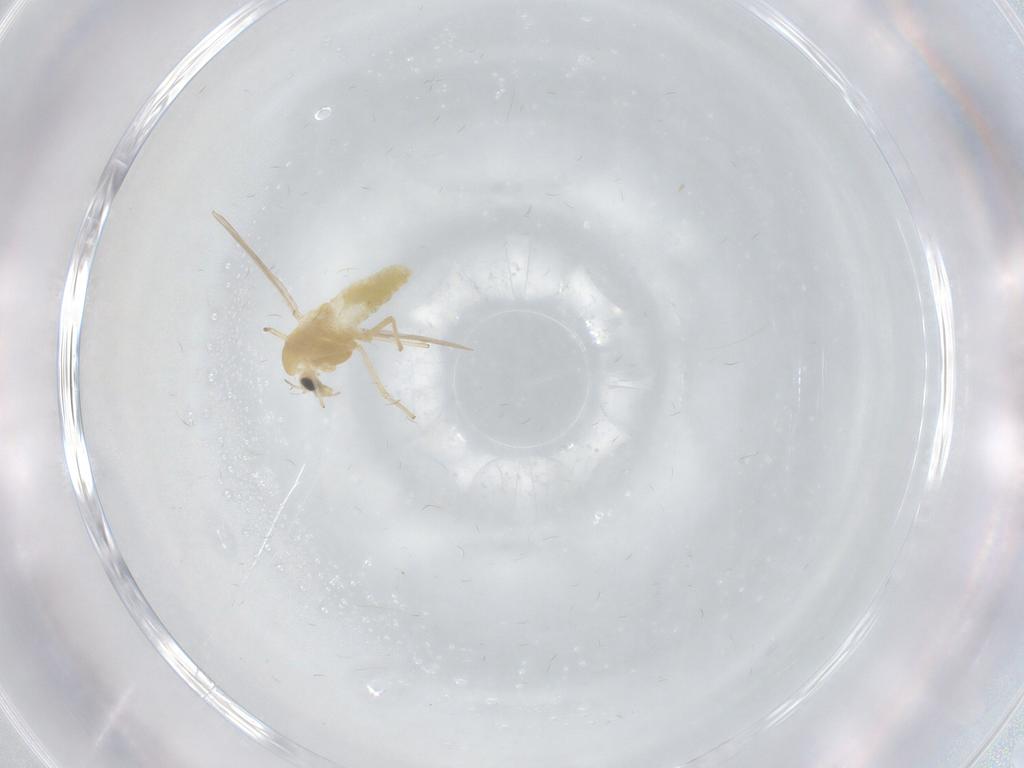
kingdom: Animalia
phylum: Arthropoda
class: Insecta
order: Diptera
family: Chironomidae
